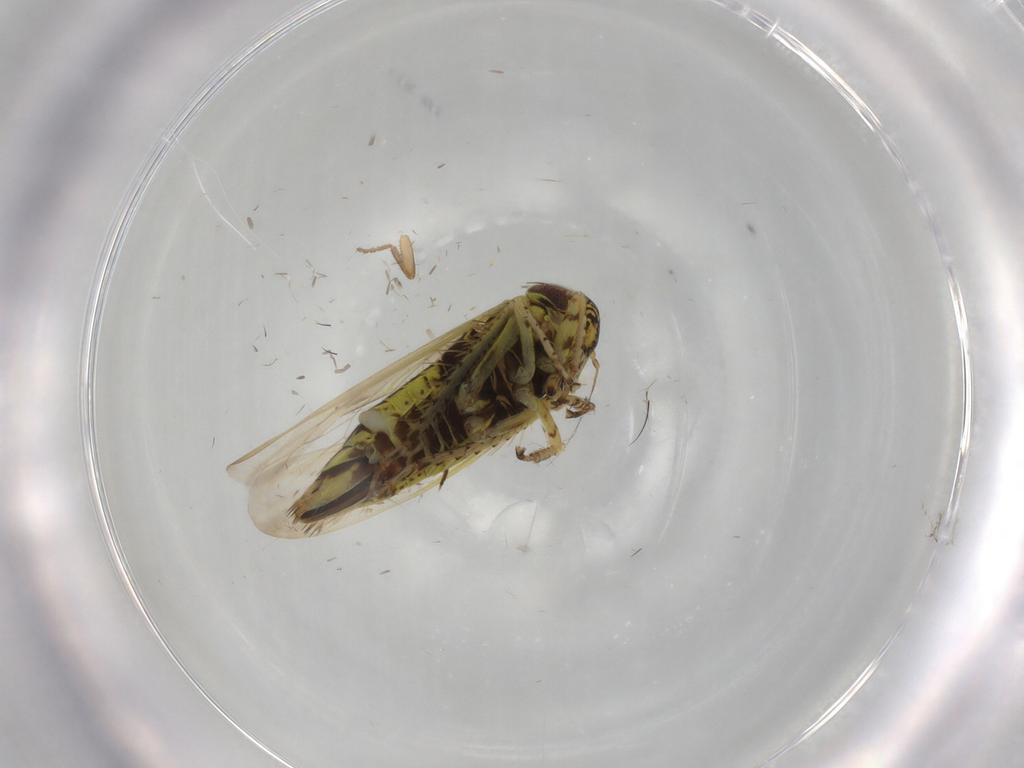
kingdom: Animalia
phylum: Arthropoda
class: Insecta
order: Hemiptera
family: Cicadellidae
